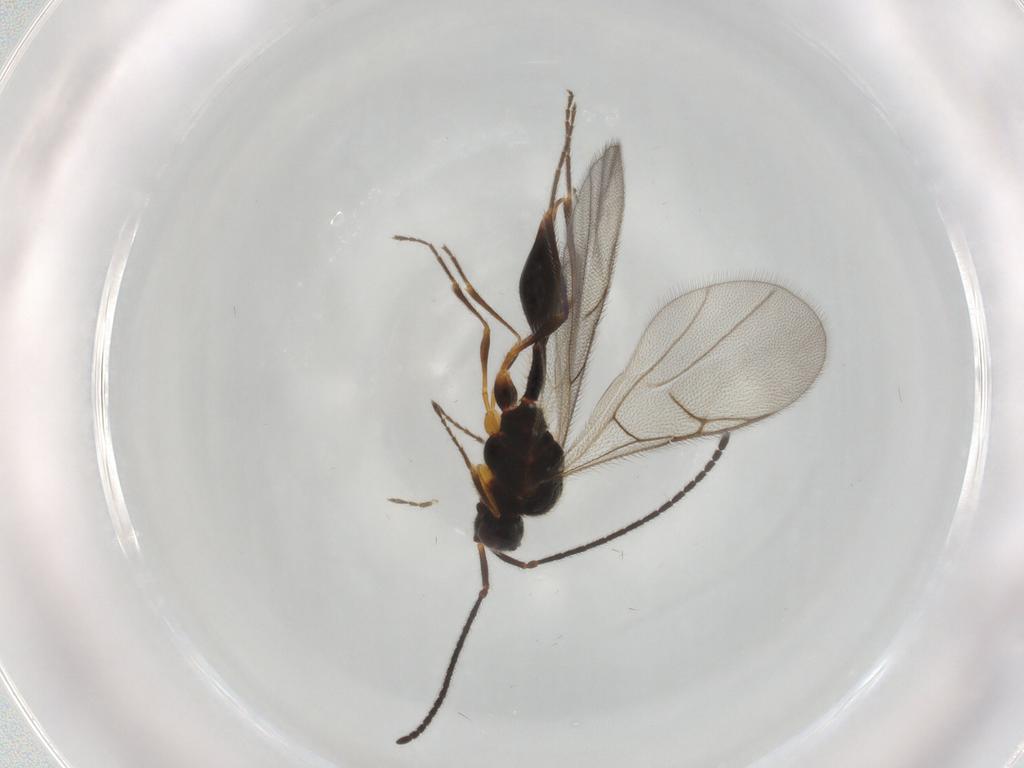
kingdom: Animalia
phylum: Arthropoda
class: Insecta
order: Hymenoptera
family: Diapriidae
